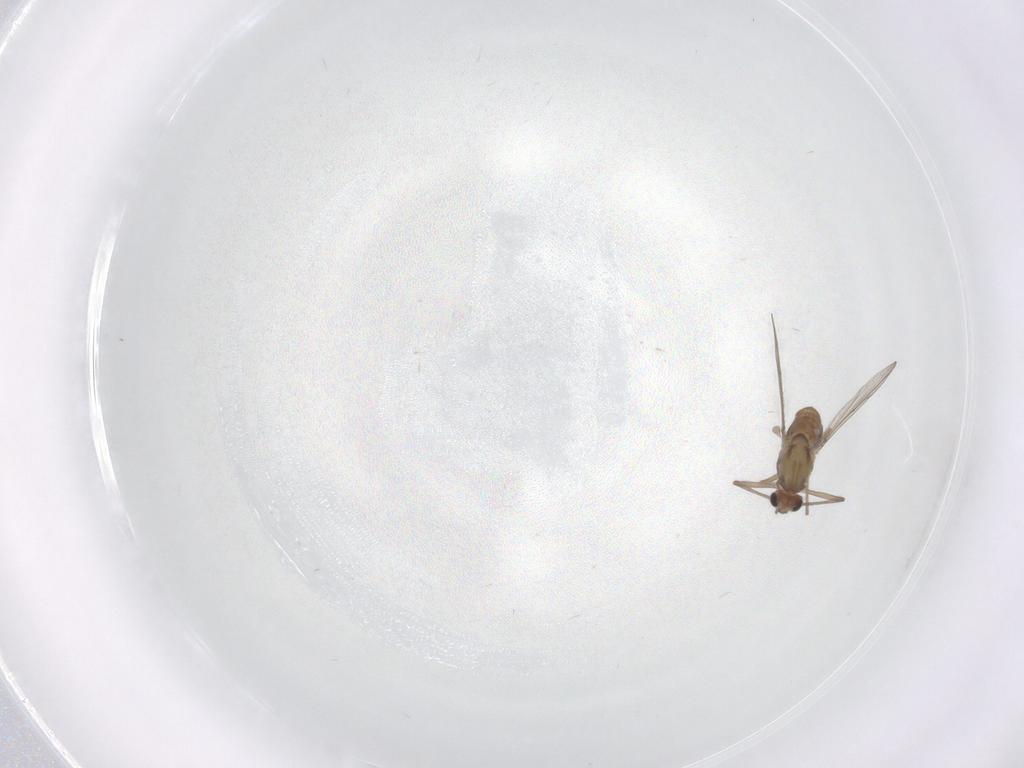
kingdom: Animalia
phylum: Arthropoda
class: Insecta
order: Diptera
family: Chironomidae
